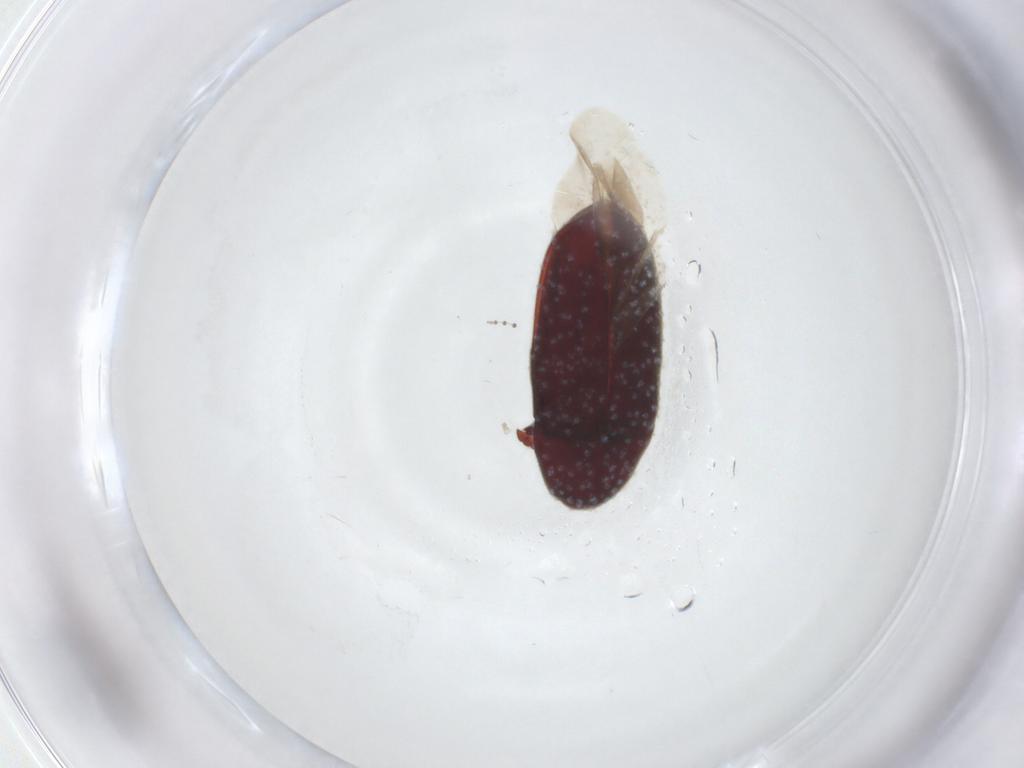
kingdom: Animalia
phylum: Arthropoda
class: Insecta
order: Coleoptera
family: Throscidae
